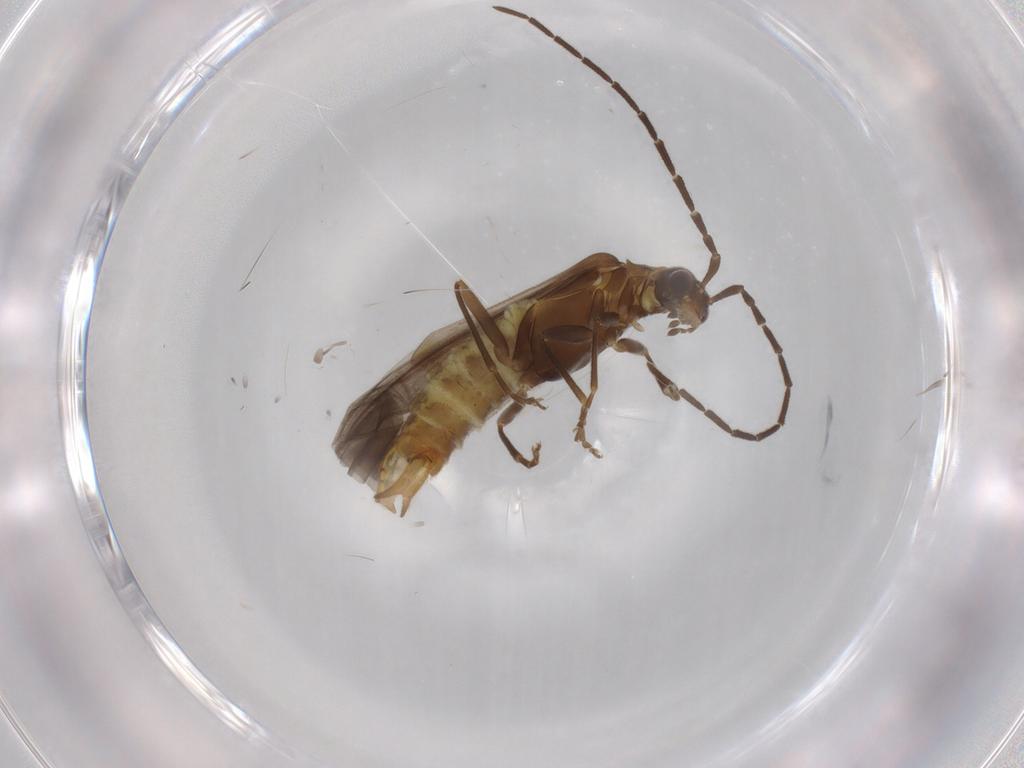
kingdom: Animalia
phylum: Arthropoda
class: Insecta
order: Coleoptera
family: Cantharidae
